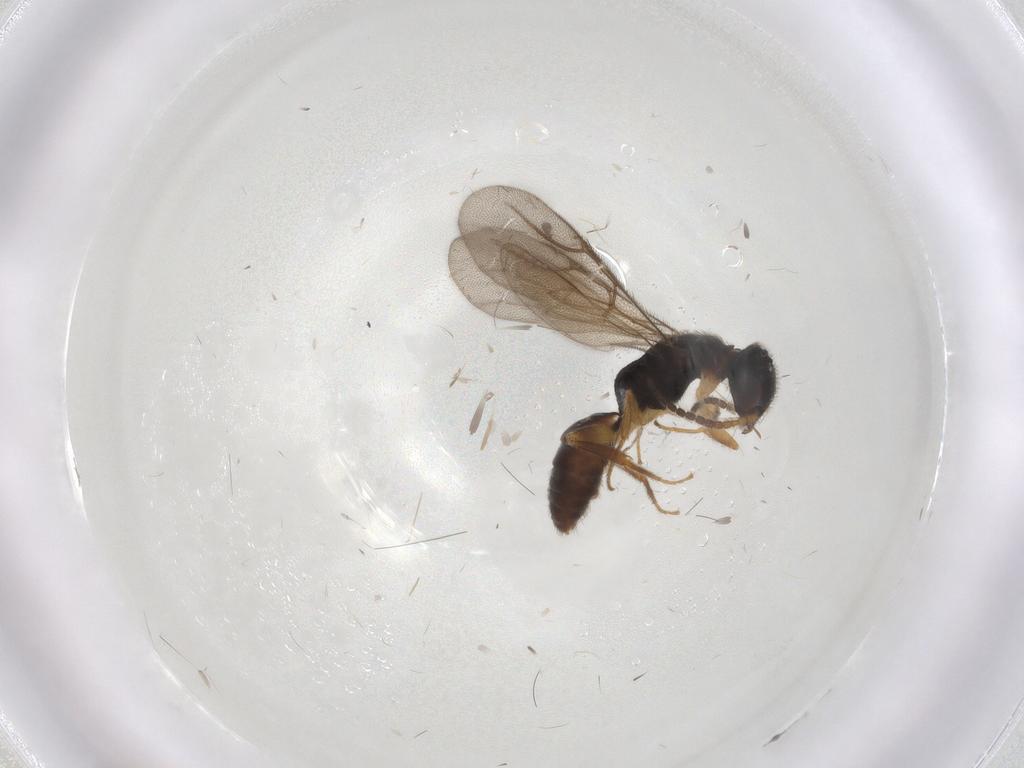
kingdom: Animalia
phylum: Arthropoda
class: Insecta
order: Hymenoptera
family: Bethylidae
